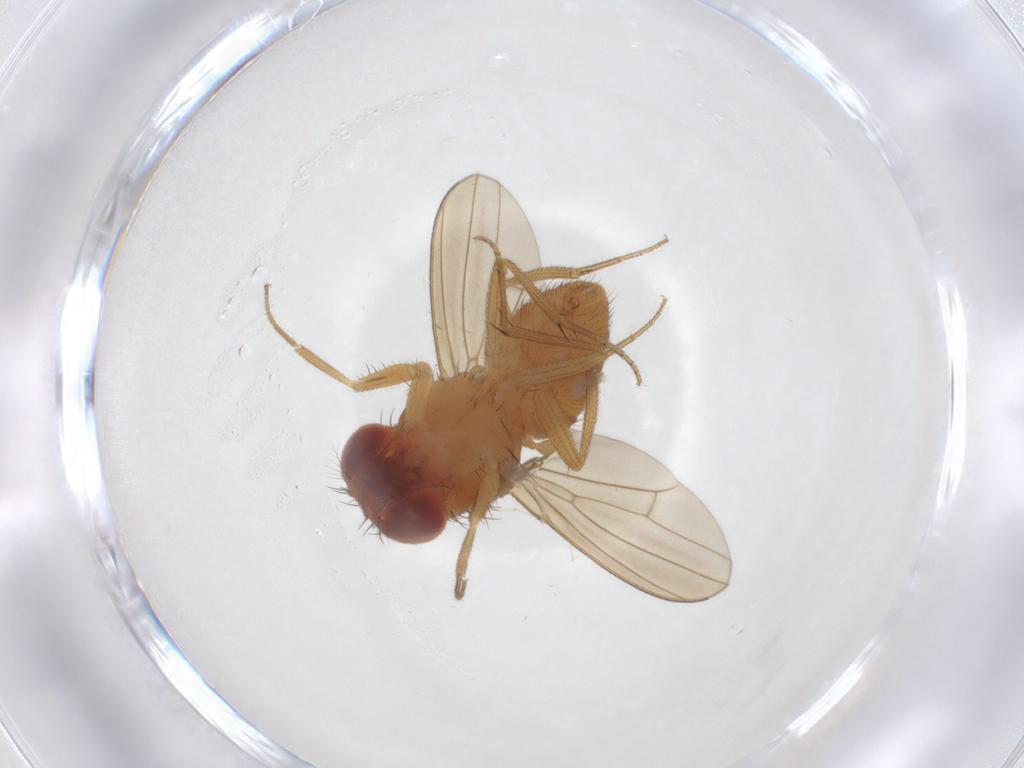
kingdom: Animalia
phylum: Arthropoda
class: Insecta
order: Diptera
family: Drosophilidae
